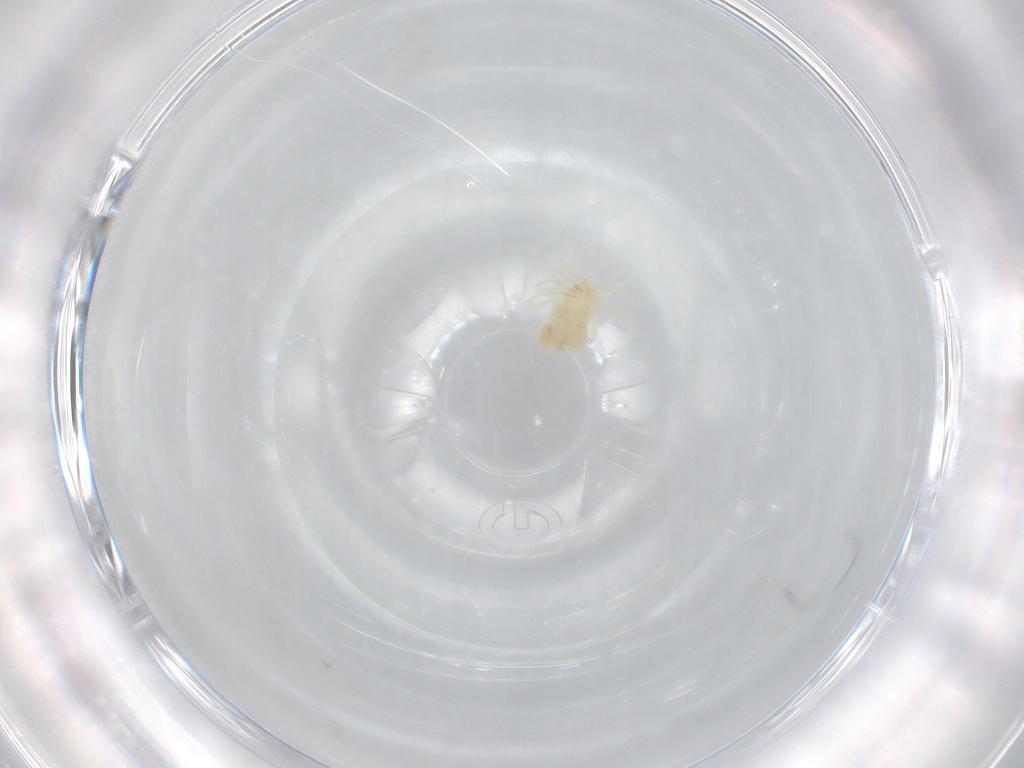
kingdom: Animalia
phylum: Arthropoda
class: Arachnida
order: Trombidiformes
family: Anystidae
